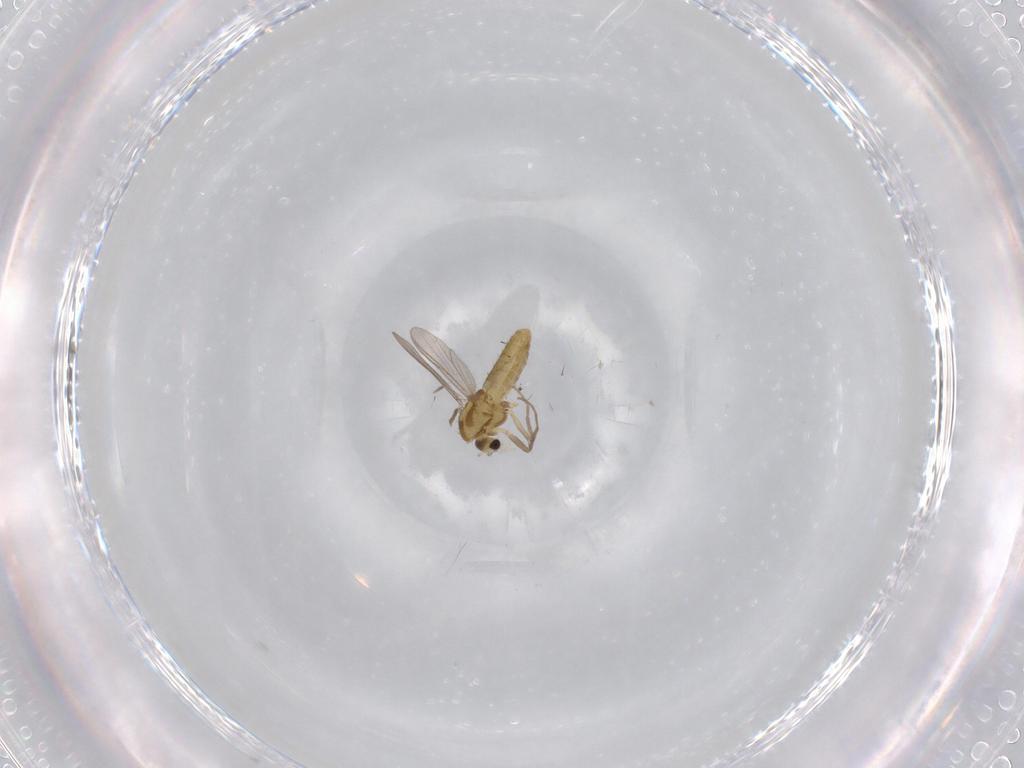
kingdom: Animalia
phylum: Arthropoda
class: Insecta
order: Diptera
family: Chironomidae
